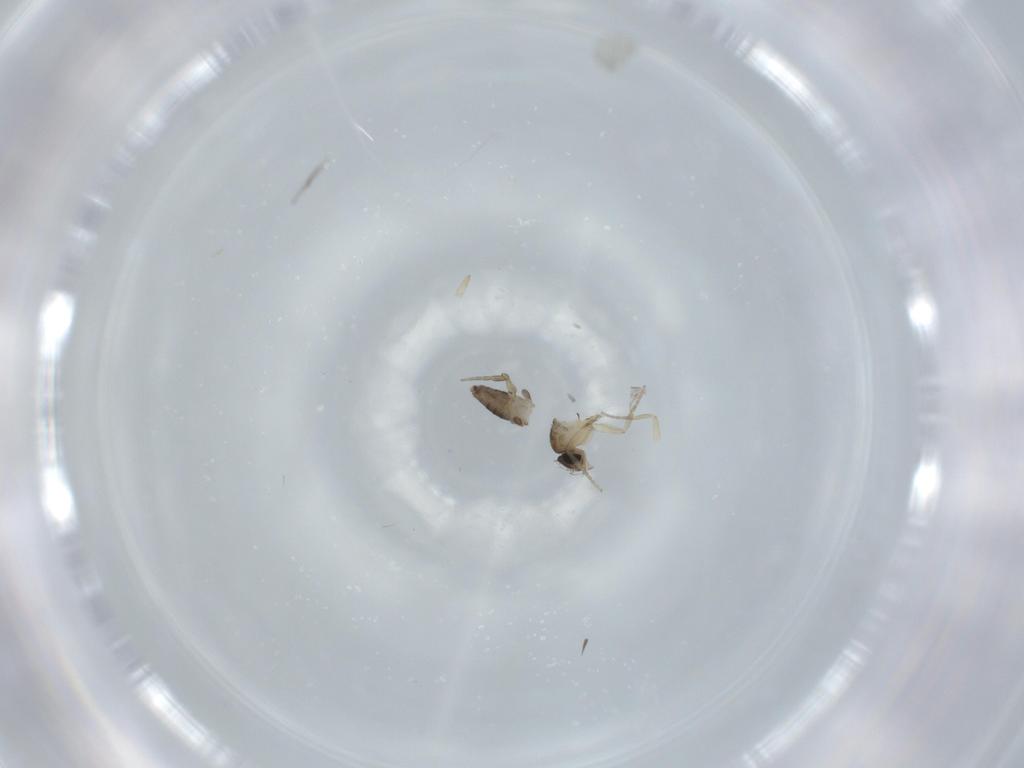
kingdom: Animalia
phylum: Arthropoda
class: Insecta
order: Diptera
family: Phoridae
